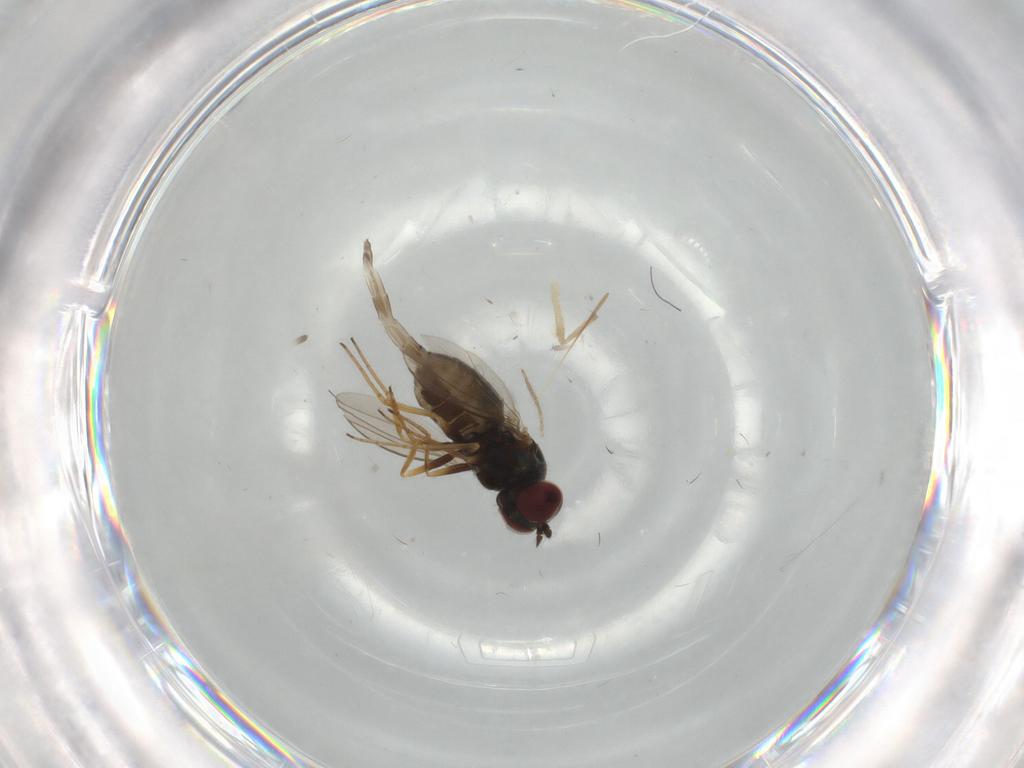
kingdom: Animalia
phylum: Arthropoda
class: Insecta
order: Diptera
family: Dolichopodidae
